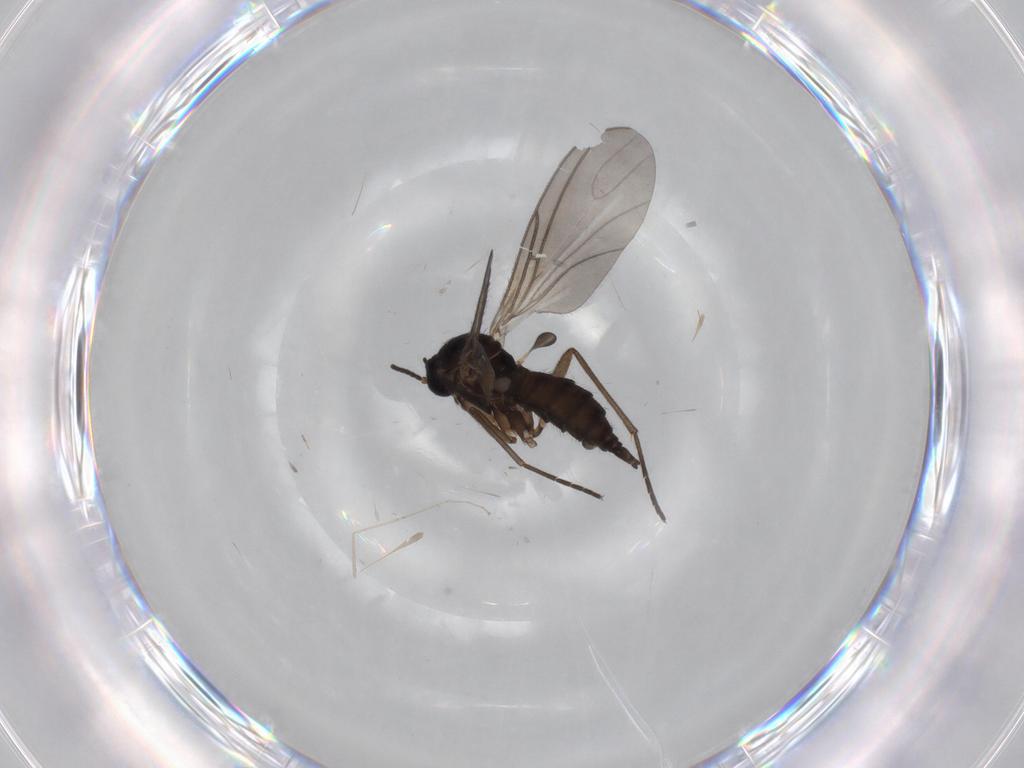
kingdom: Animalia
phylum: Arthropoda
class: Insecta
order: Diptera
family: Sciaridae
